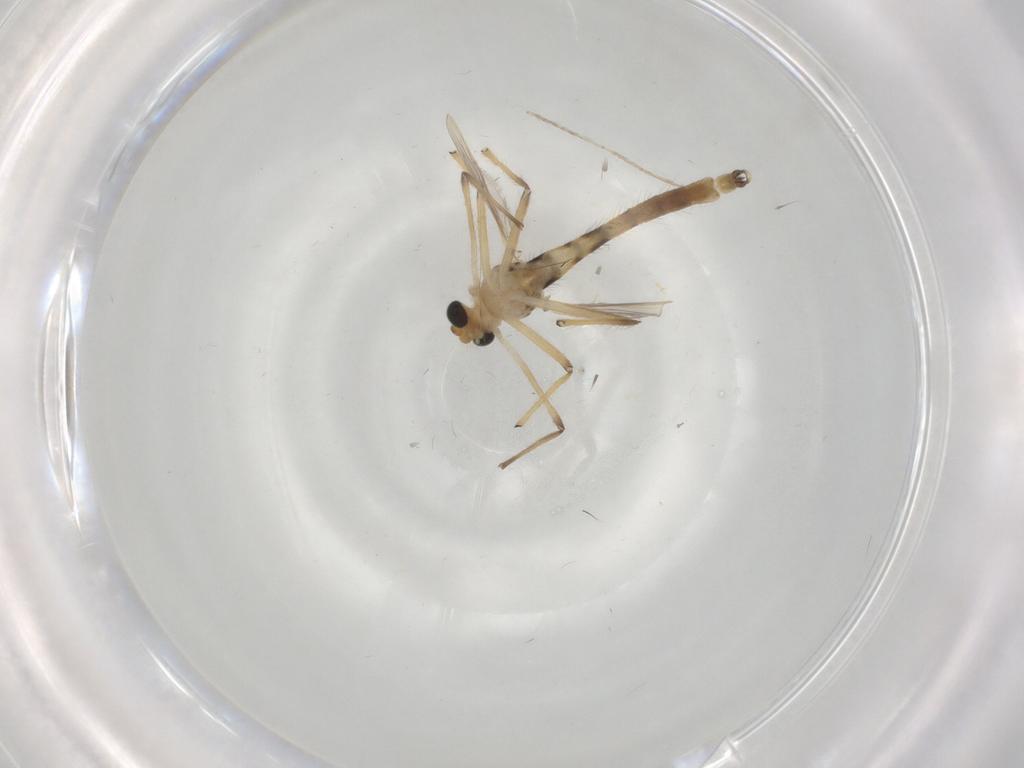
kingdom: Animalia
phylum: Arthropoda
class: Insecta
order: Diptera
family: Chironomidae
